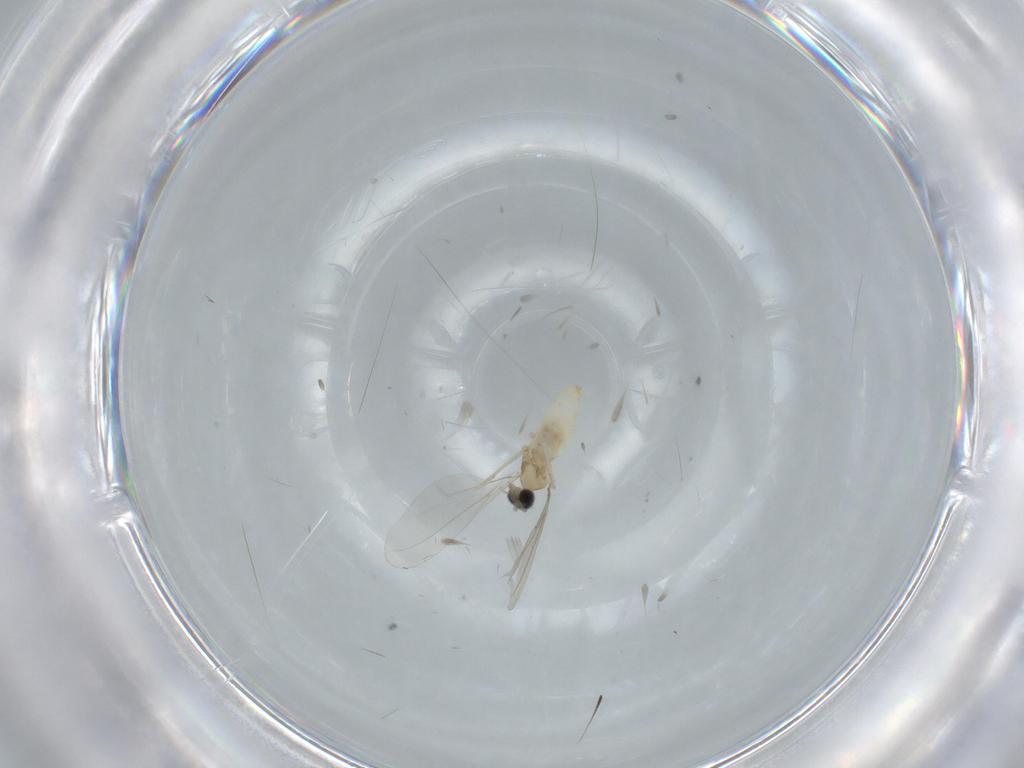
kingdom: Animalia
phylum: Arthropoda
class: Insecta
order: Diptera
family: Cecidomyiidae
